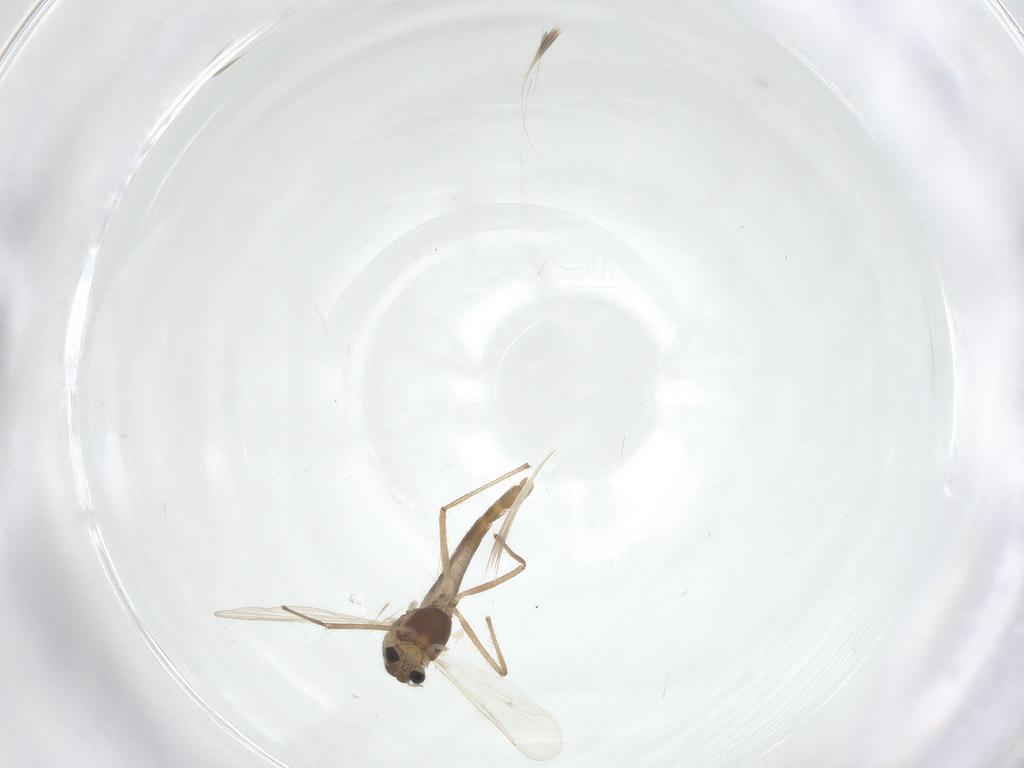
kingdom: Animalia
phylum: Arthropoda
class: Insecta
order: Diptera
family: Chironomidae
